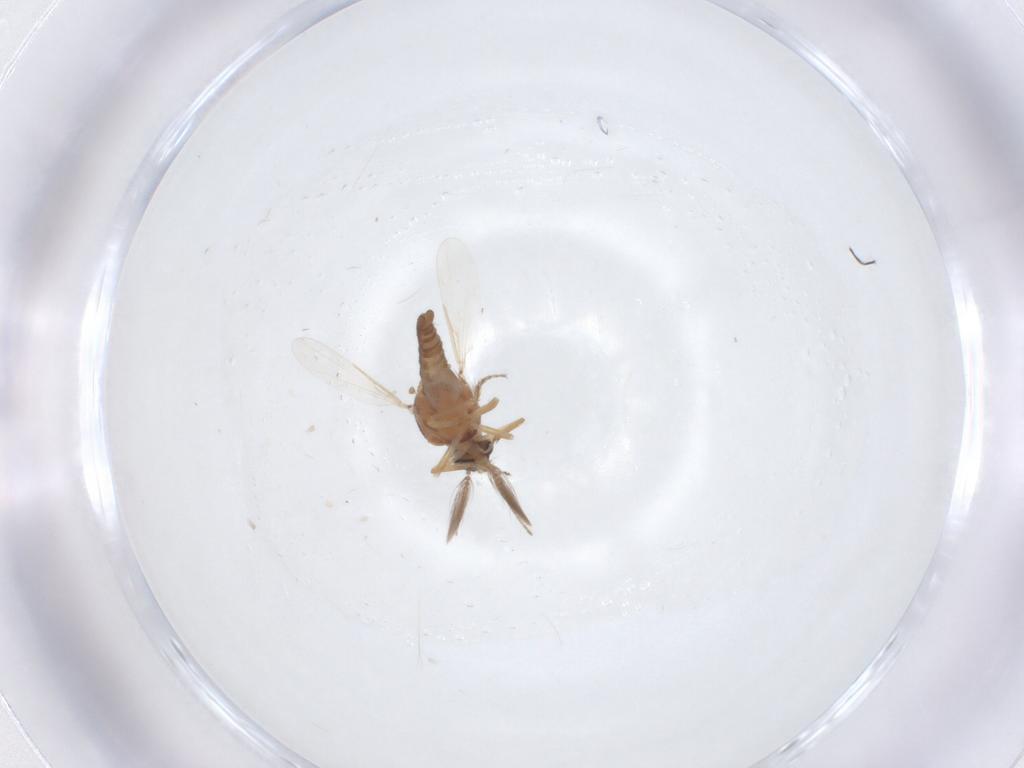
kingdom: Animalia
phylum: Arthropoda
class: Insecta
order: Diptera
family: Ceratopogonidae
